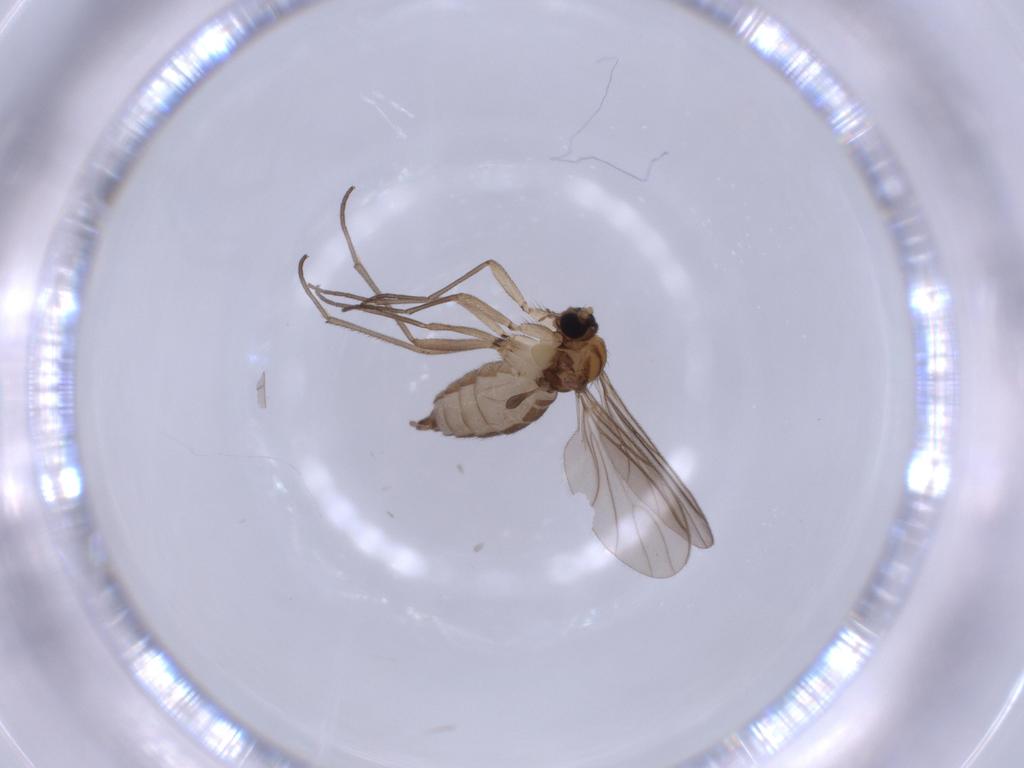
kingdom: Animalia
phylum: Arthropoda
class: Insecta
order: Diptera
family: Sciaridae
